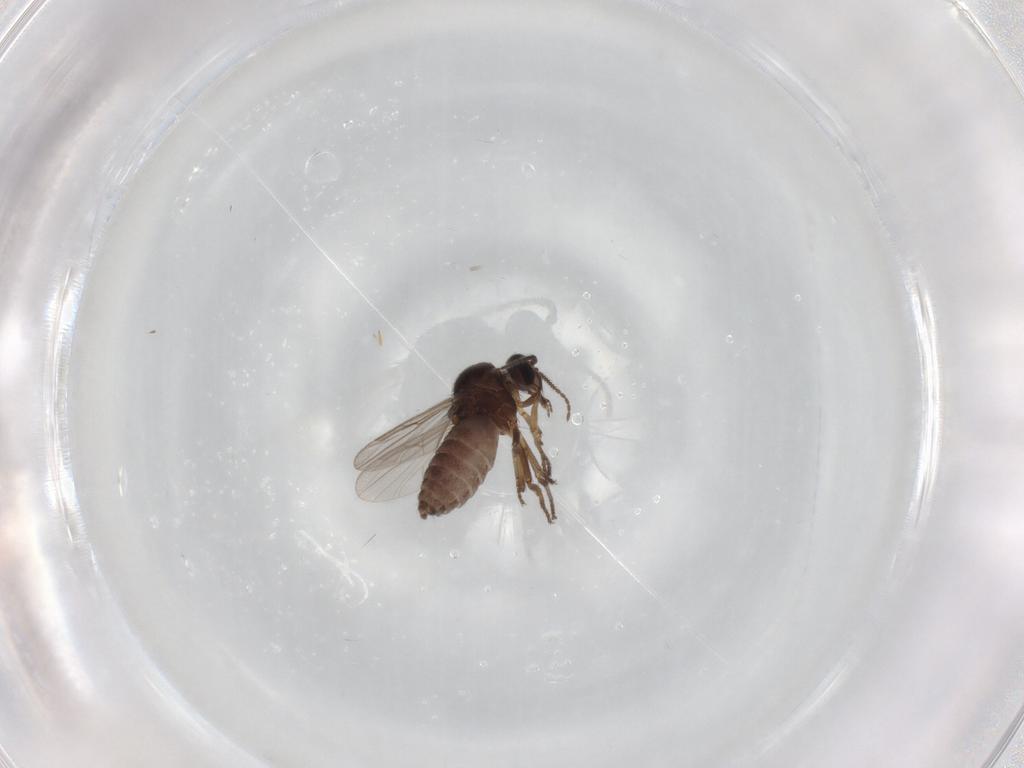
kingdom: Animalia
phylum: Arthropoda
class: Insecta
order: Diptera
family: Ceratopogonidae
